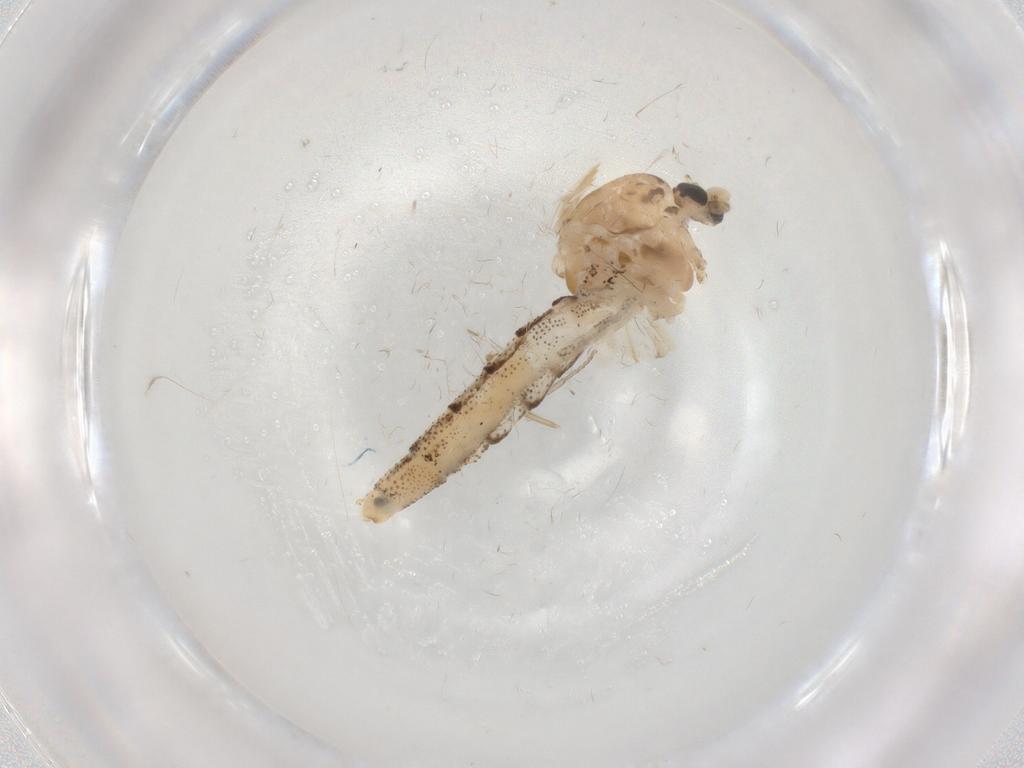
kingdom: Animalia
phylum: Arthropoda
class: Insecta
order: Diptera
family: Chaoboridae
